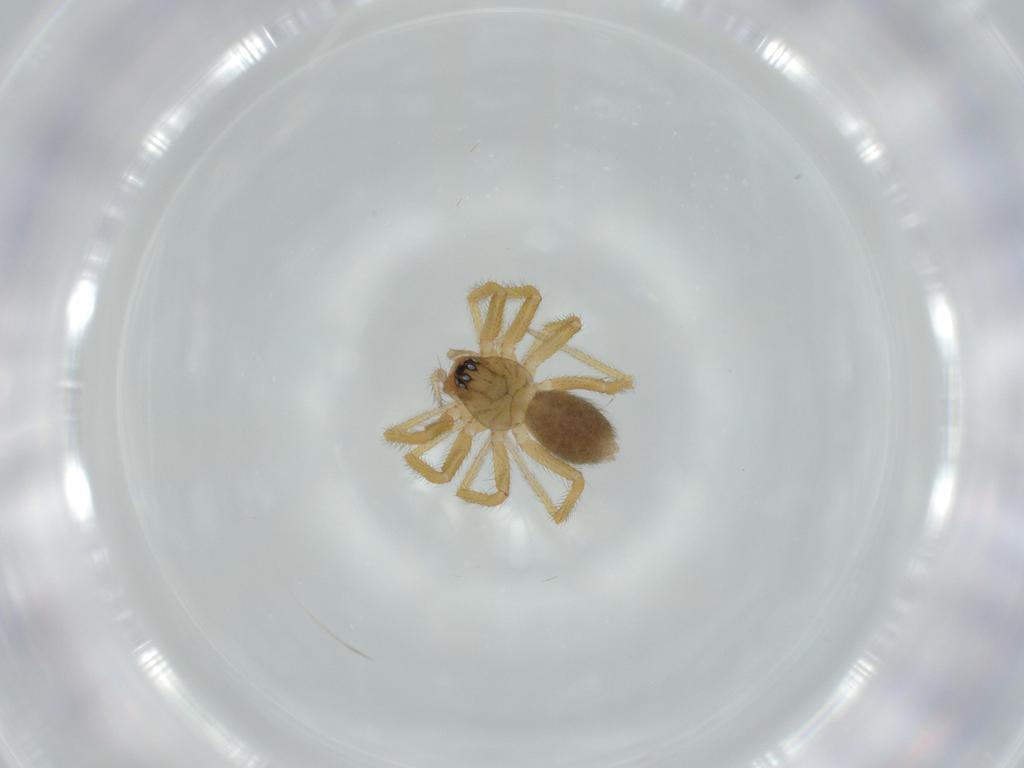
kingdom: Animalia
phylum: Arthropoda
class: Arachnida
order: Araneae
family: Linyphiidae
